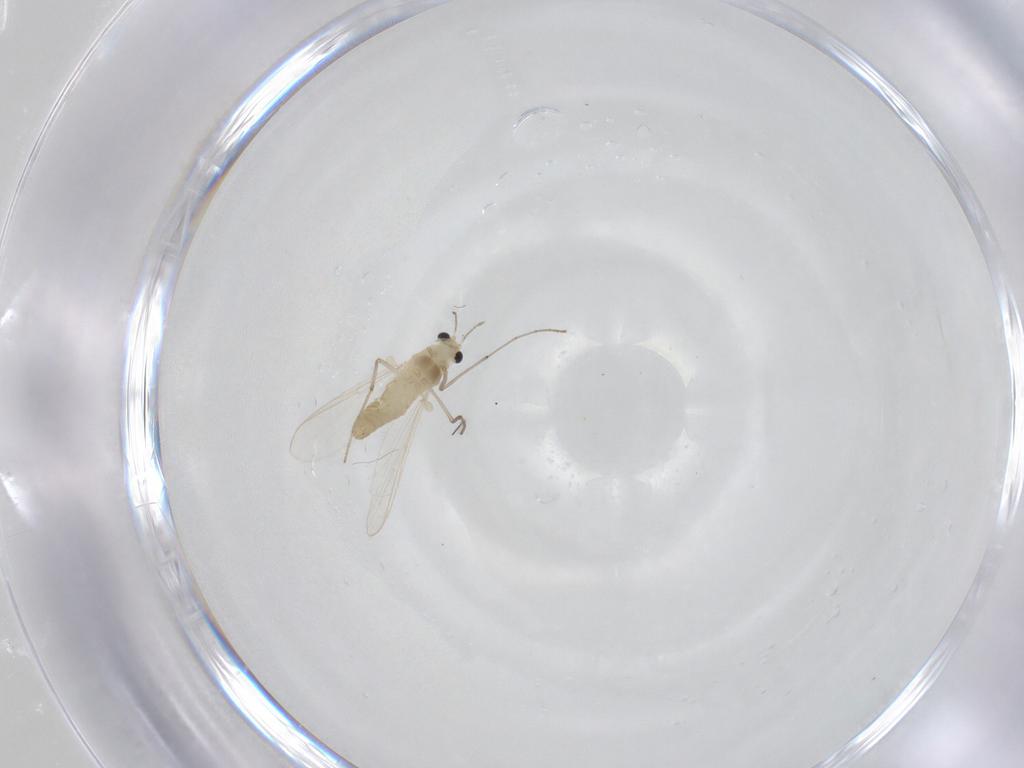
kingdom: Animalia
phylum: Arthropoda
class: Insecta
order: Diptera
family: Chironomidae
